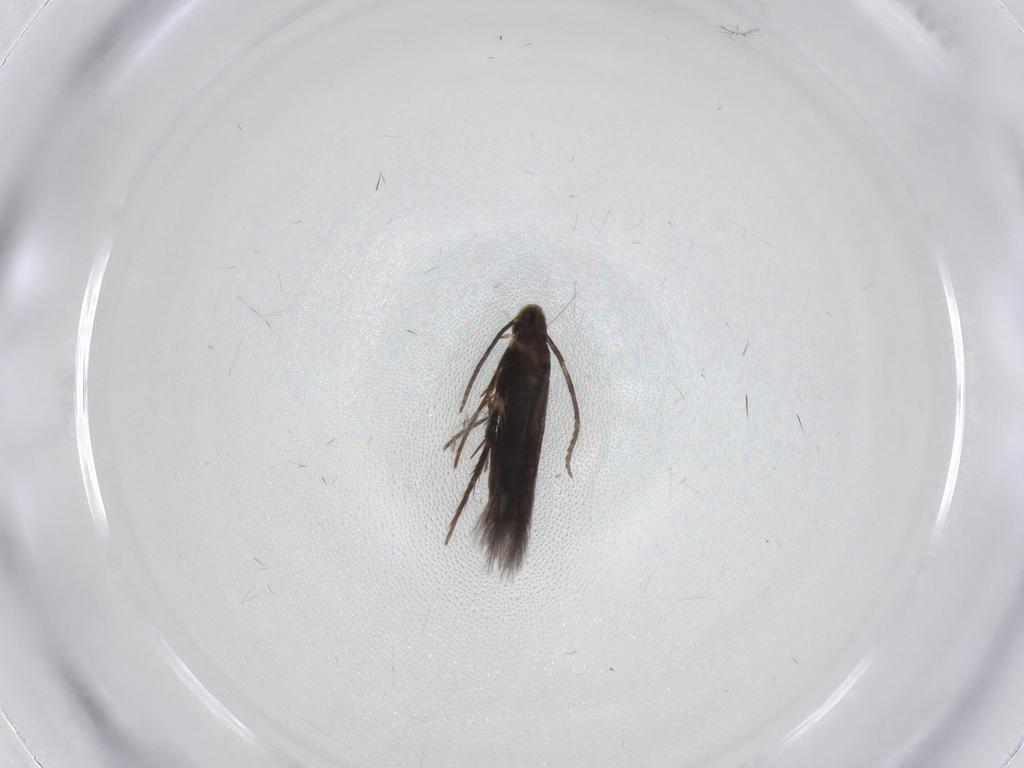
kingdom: Animalia
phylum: Arthropoda
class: Insecta
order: Lepidoptera
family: Gelechiidae
